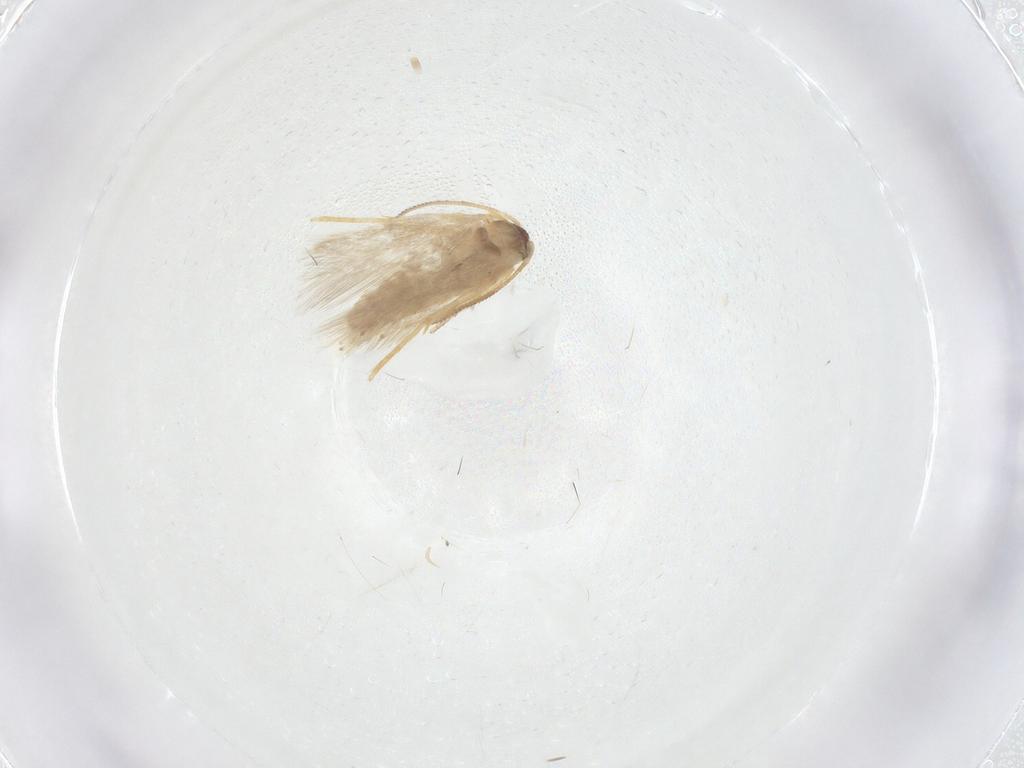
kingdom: Animalia
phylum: Arthropoda
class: Insecta
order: Lepidoptera
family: Nepticulidae
